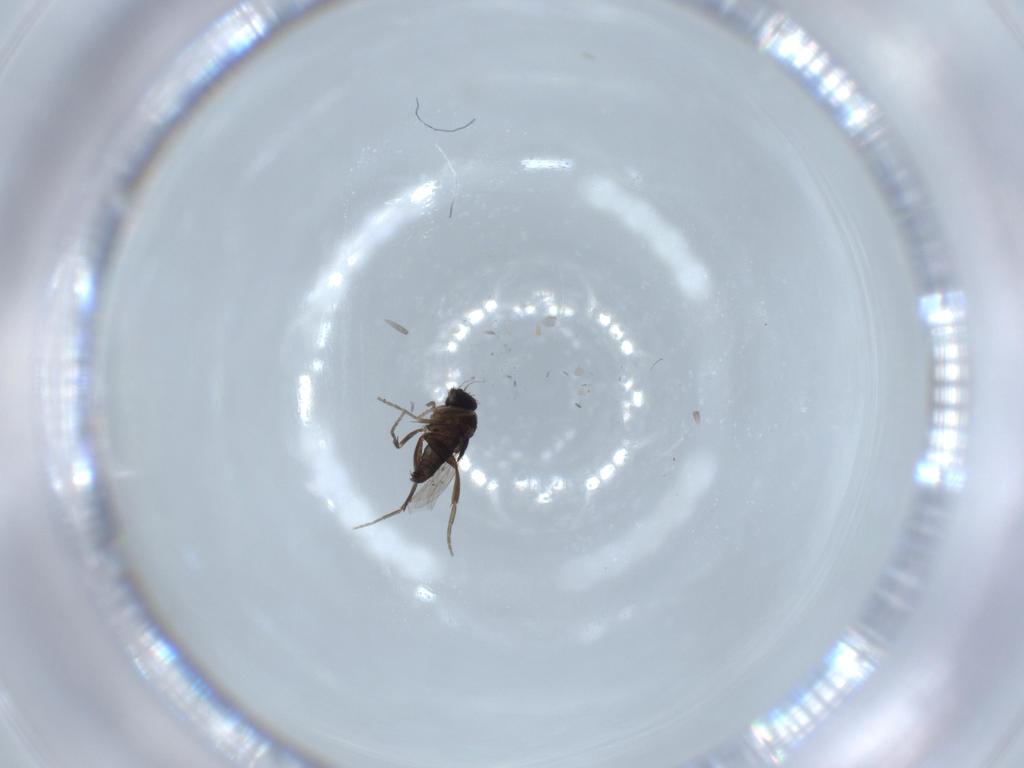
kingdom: Animalia
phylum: Arthropoda
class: Insecta
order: Diptera
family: Phoridae
